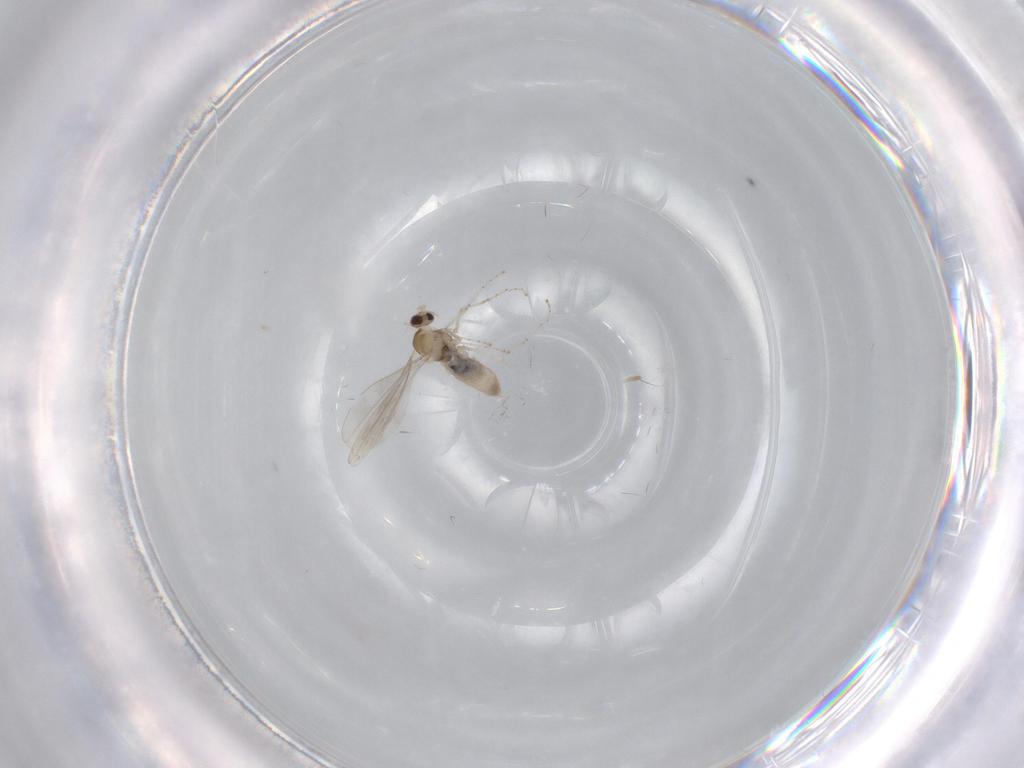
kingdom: Animalia
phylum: Arthropoda
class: Insecta
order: Diptera
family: Cecidomyiidae
